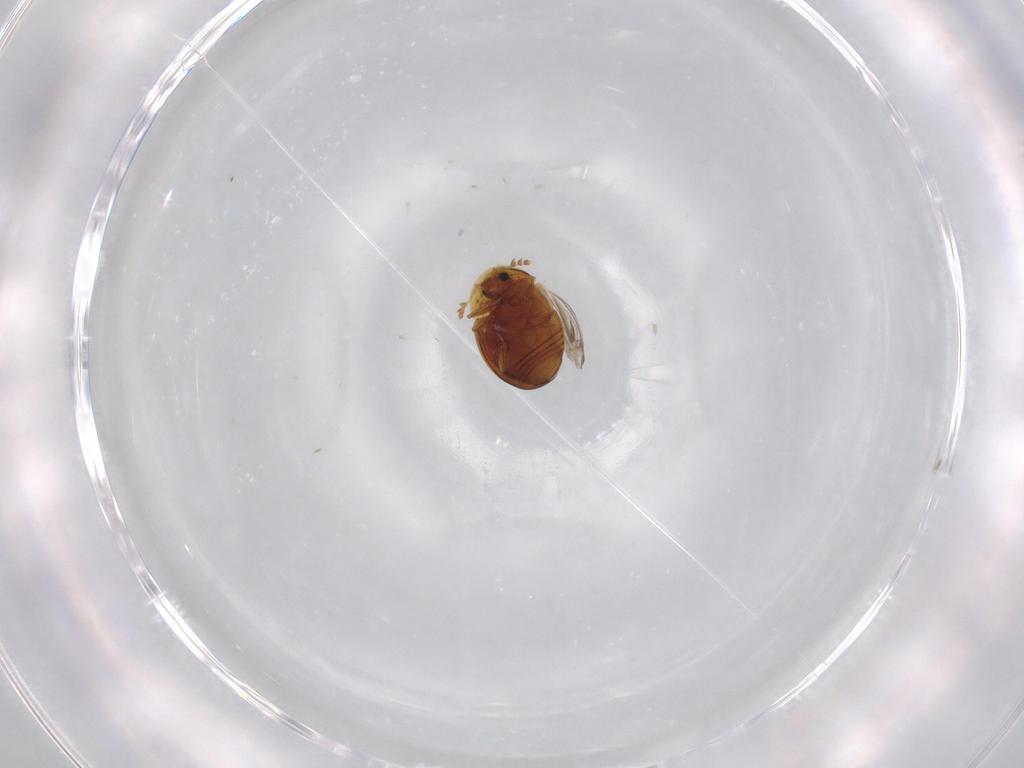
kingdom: Animalia
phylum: Arthropoda
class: Insecta
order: Coleoptera
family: Corylophidae
